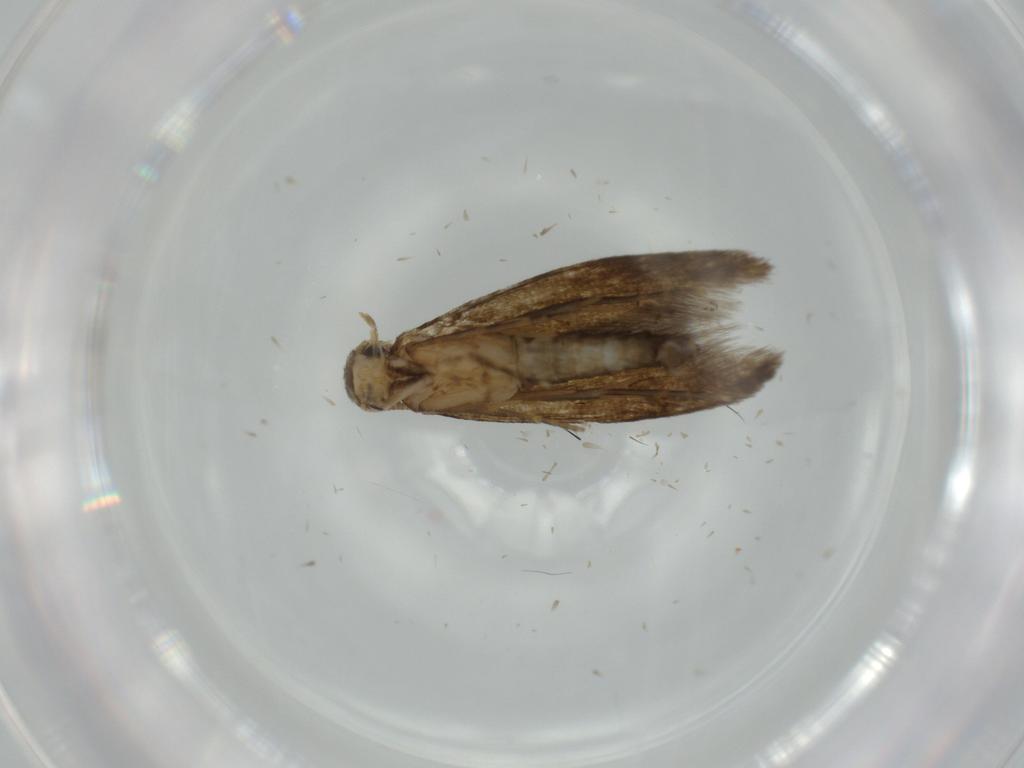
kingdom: Animalia
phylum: Arthropoda
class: Insecta
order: Lepidoptera
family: Tineidae
